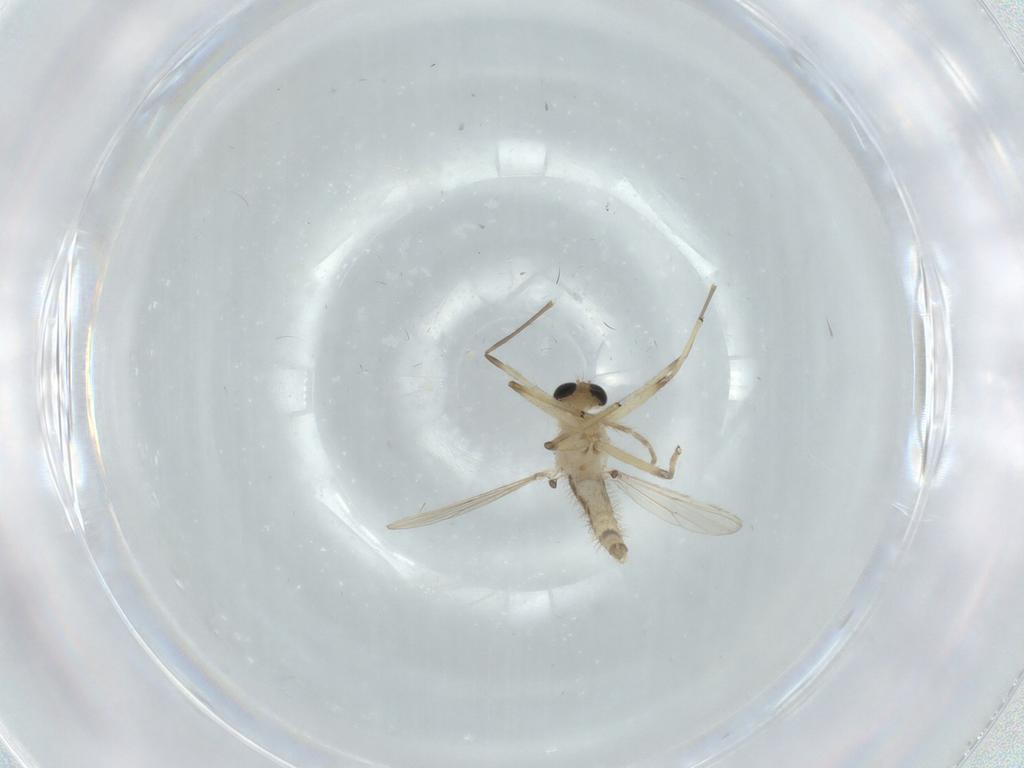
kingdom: Animalia
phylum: Arthropoda
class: Insecta
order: Diptera
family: Chironomidae
